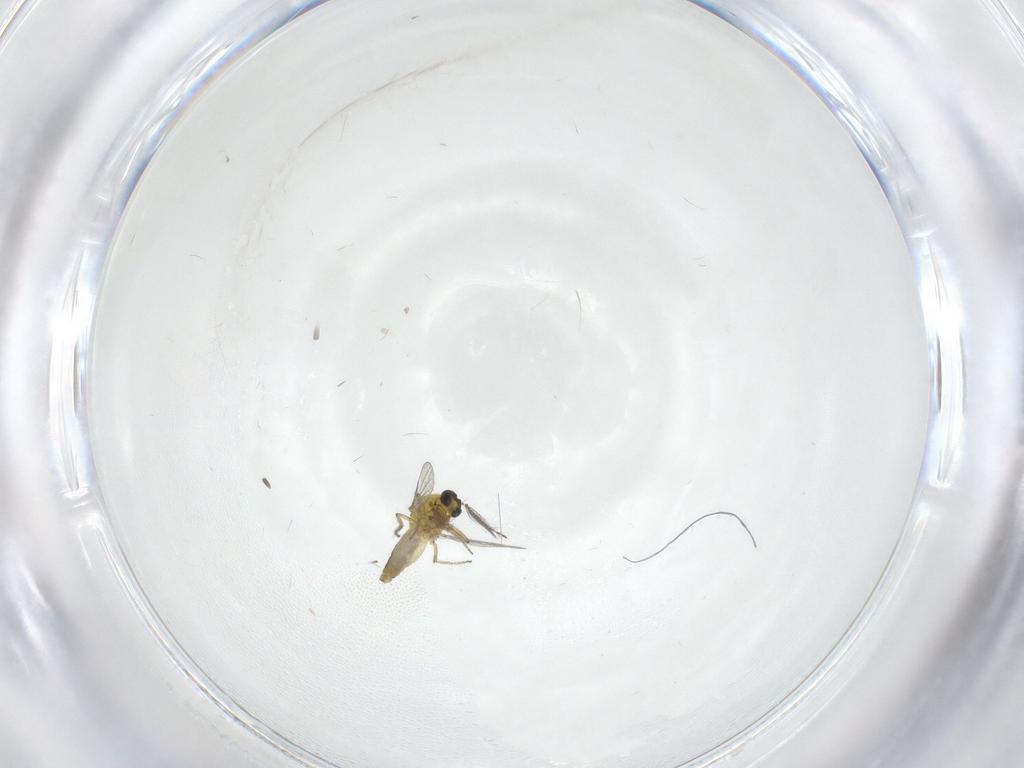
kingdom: Animalia
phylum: Arthropoda
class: Insecta
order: Diptera
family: Ceratopogonidae
